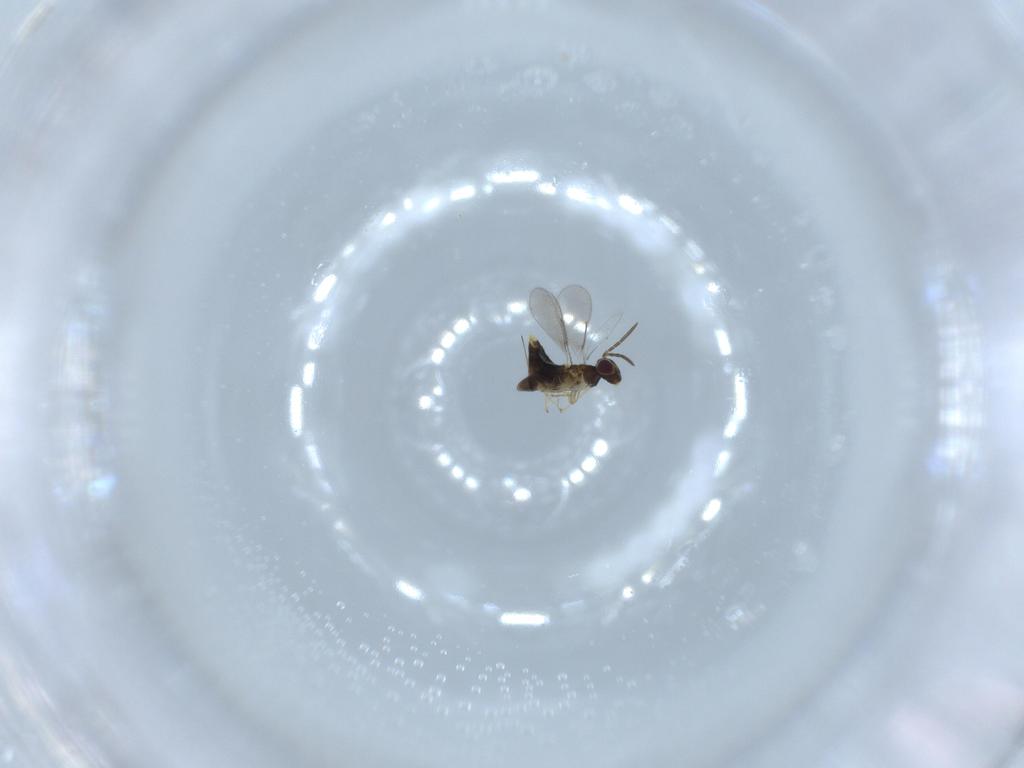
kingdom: Animalia
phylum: Arthropoda
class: Insecta
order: Hymenoptera
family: Aphelinidae
